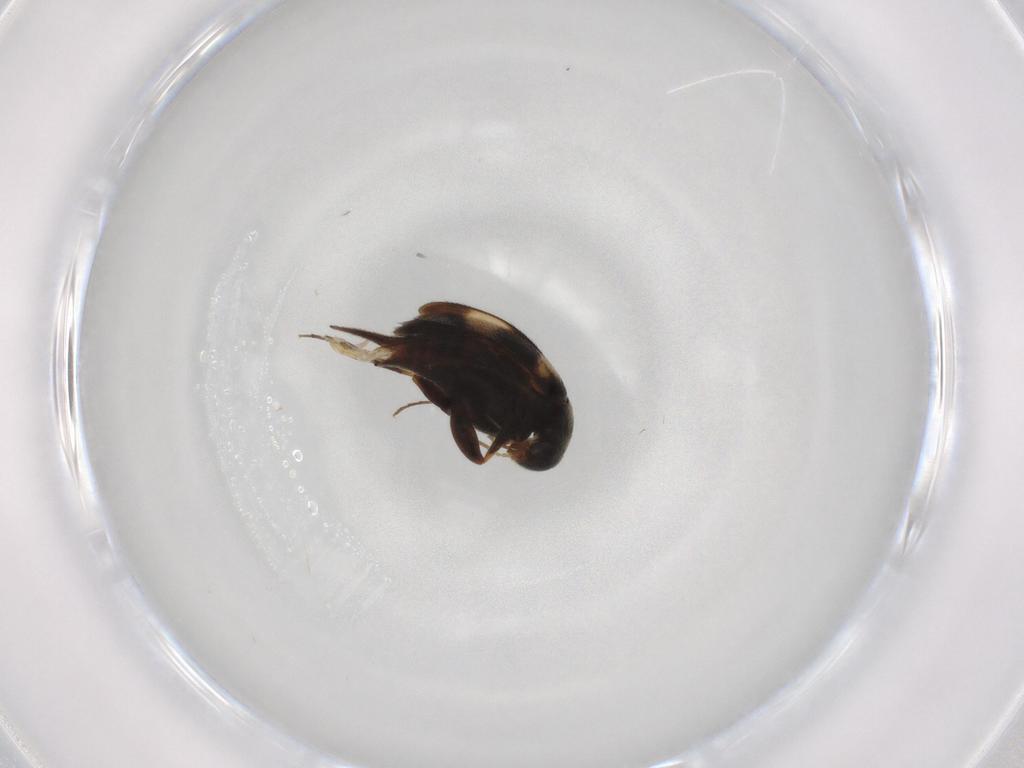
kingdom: Animalia
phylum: Arthropoda
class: Insecta
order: Coleoptera
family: Mordellidae
